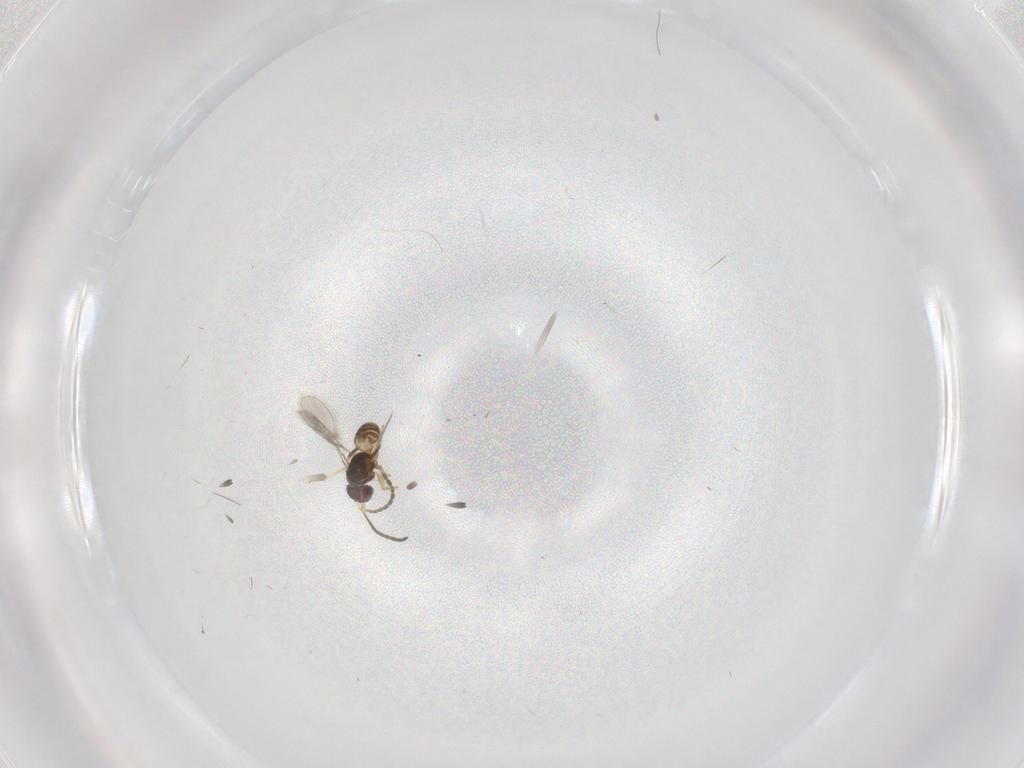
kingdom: Animalia
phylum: Arthropoda
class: Insecta
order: Hymenoptera
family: Mymaridae
